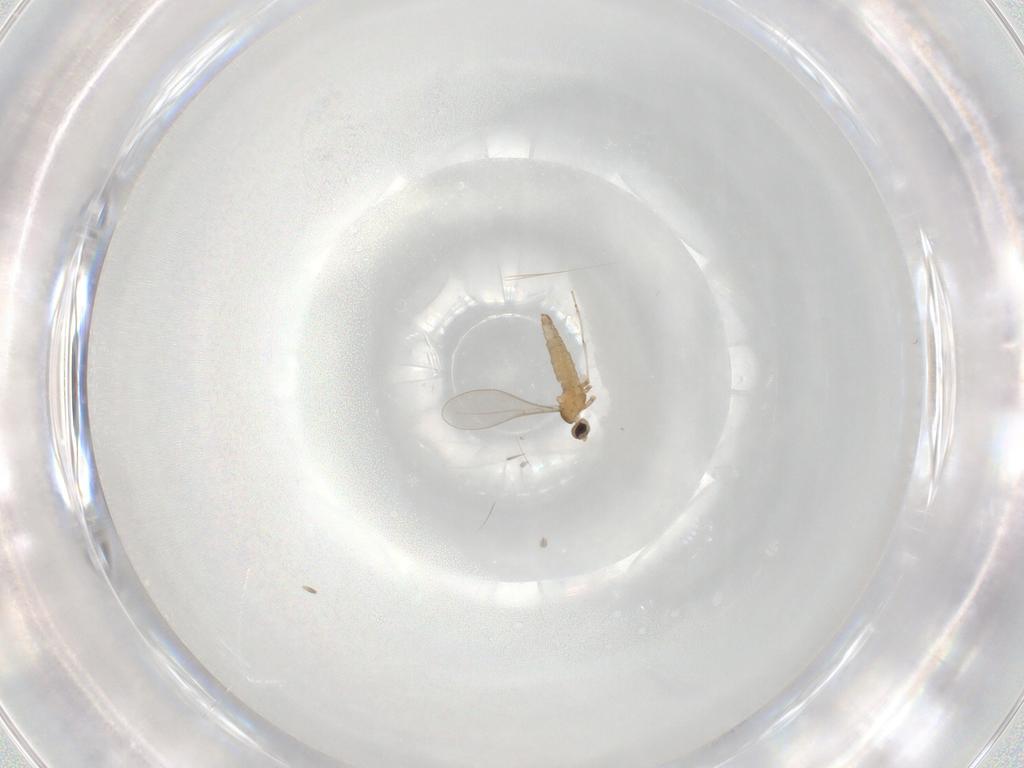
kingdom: Animalia
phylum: Arthropoda
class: Insecta
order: Diptera
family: Cecidomyiidae
